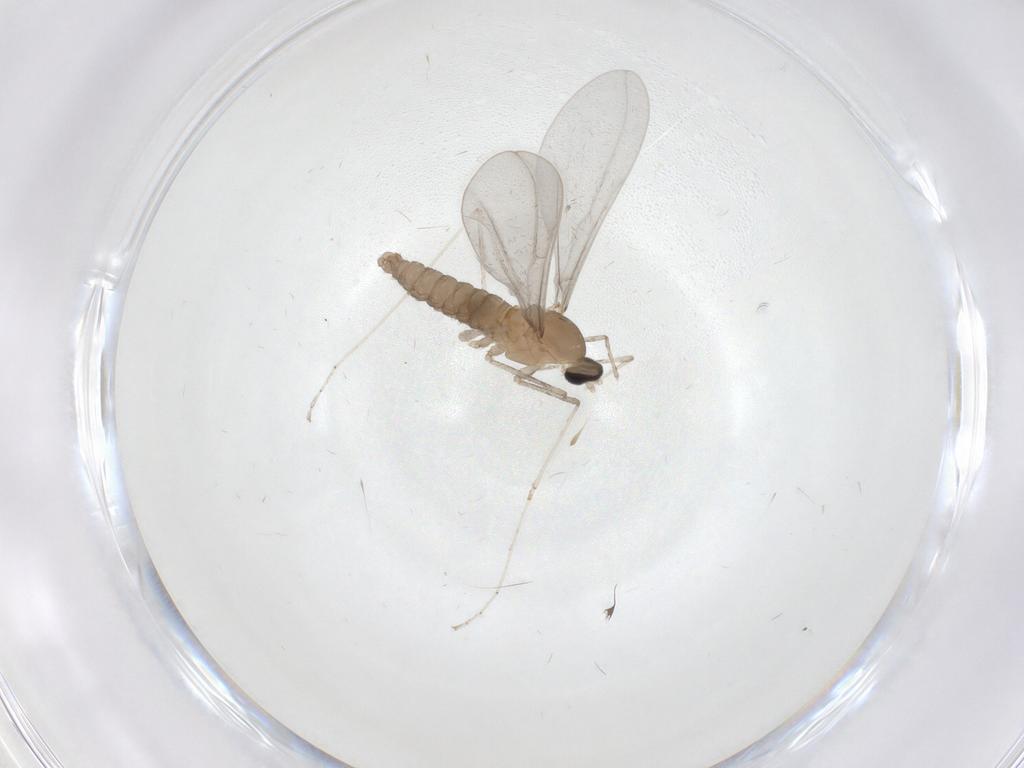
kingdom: Animalia
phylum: Arthropoda
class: Insecta
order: Diptera
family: Cecidomyiidae
